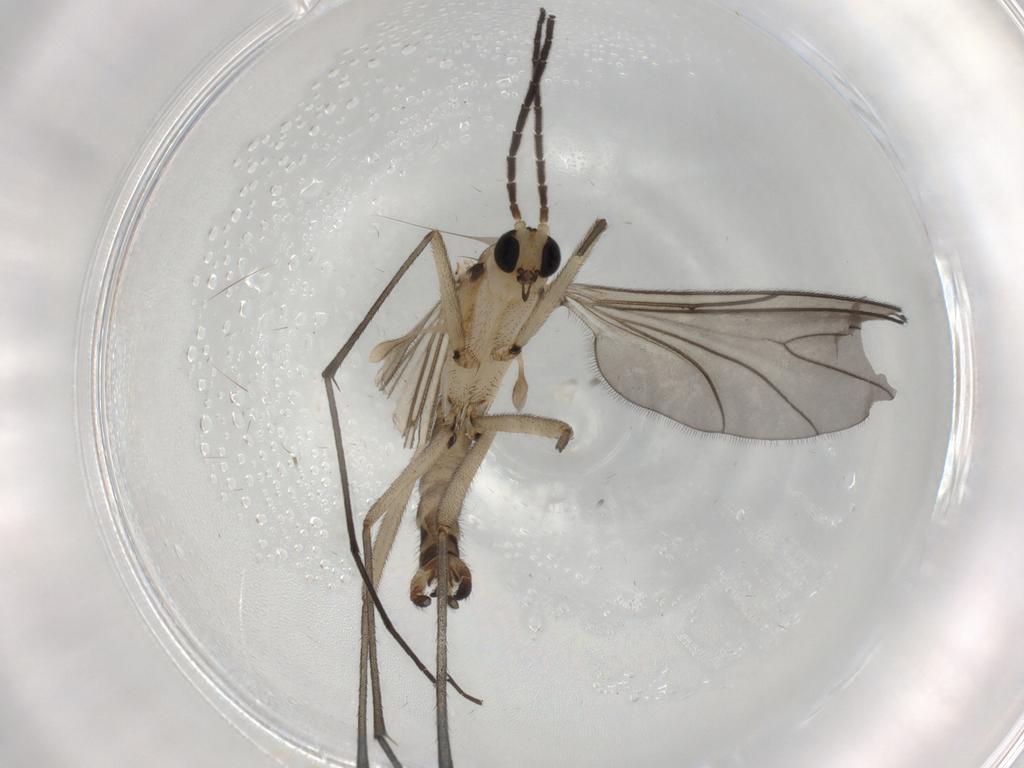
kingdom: Animalia
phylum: Arthropoda
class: Insecta
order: Diptera
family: Sciaridae
